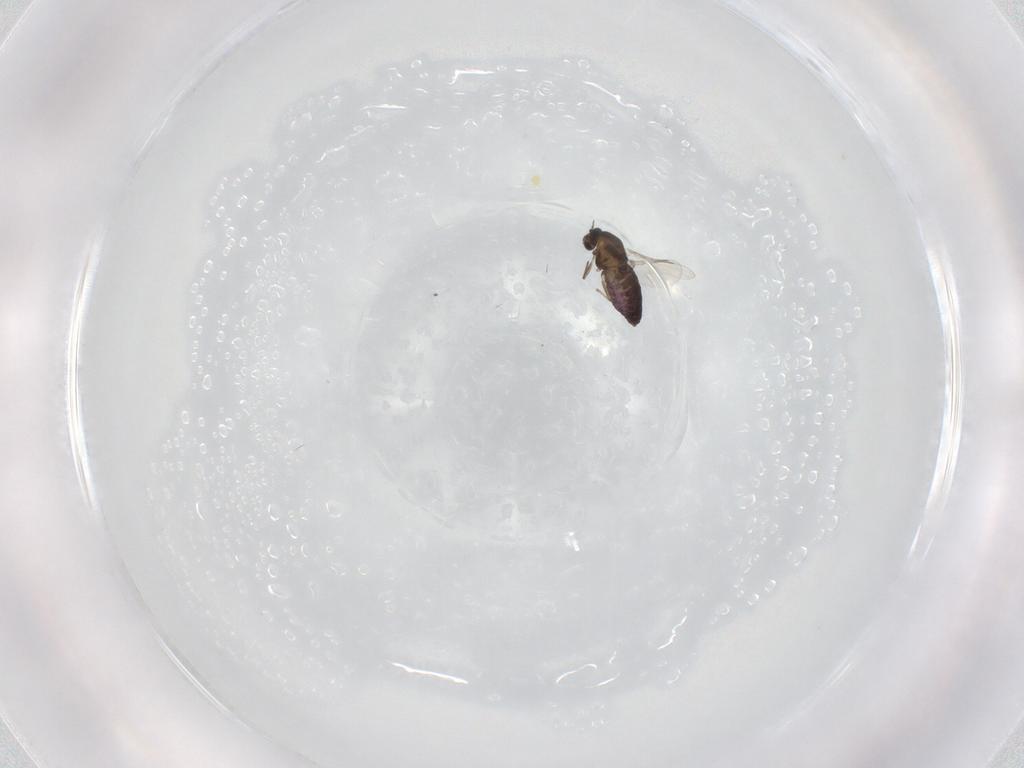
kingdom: Animalia
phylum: Arthropoda
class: Insecta
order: Diptera
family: Chironomidae
